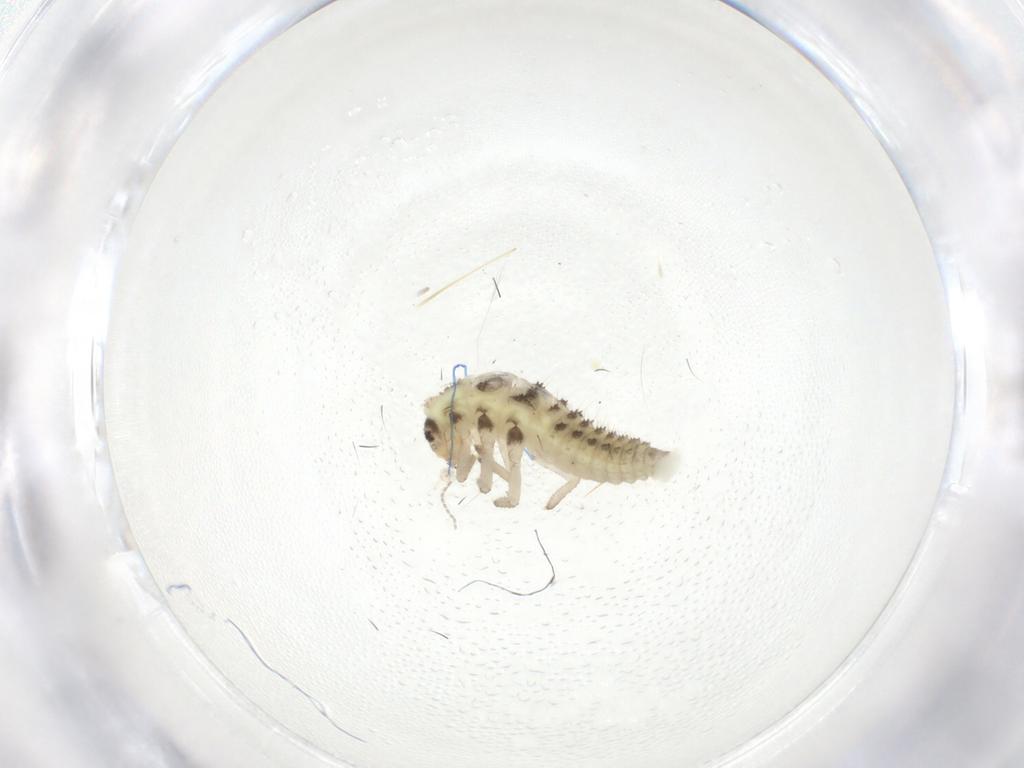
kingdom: Animalia
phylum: Arthropoda
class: Insecta
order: Coleoptera
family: Coccinellidae
